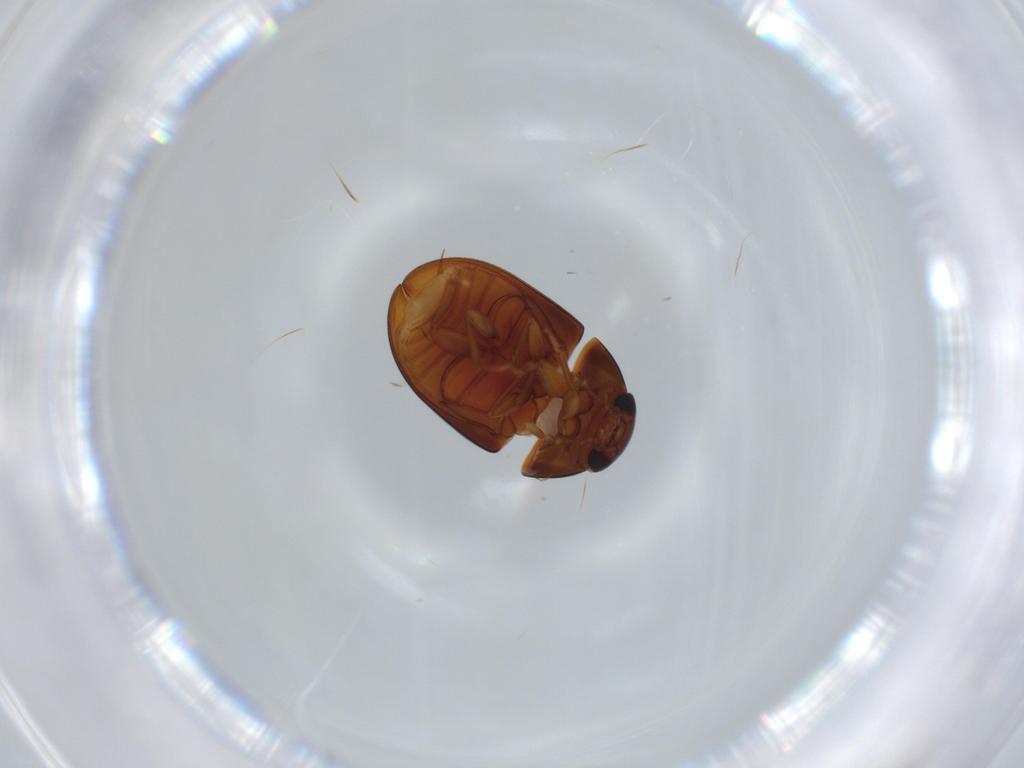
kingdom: Animalia
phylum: Arthropoda
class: Insecta
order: Coleoptera
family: Phalacridae
